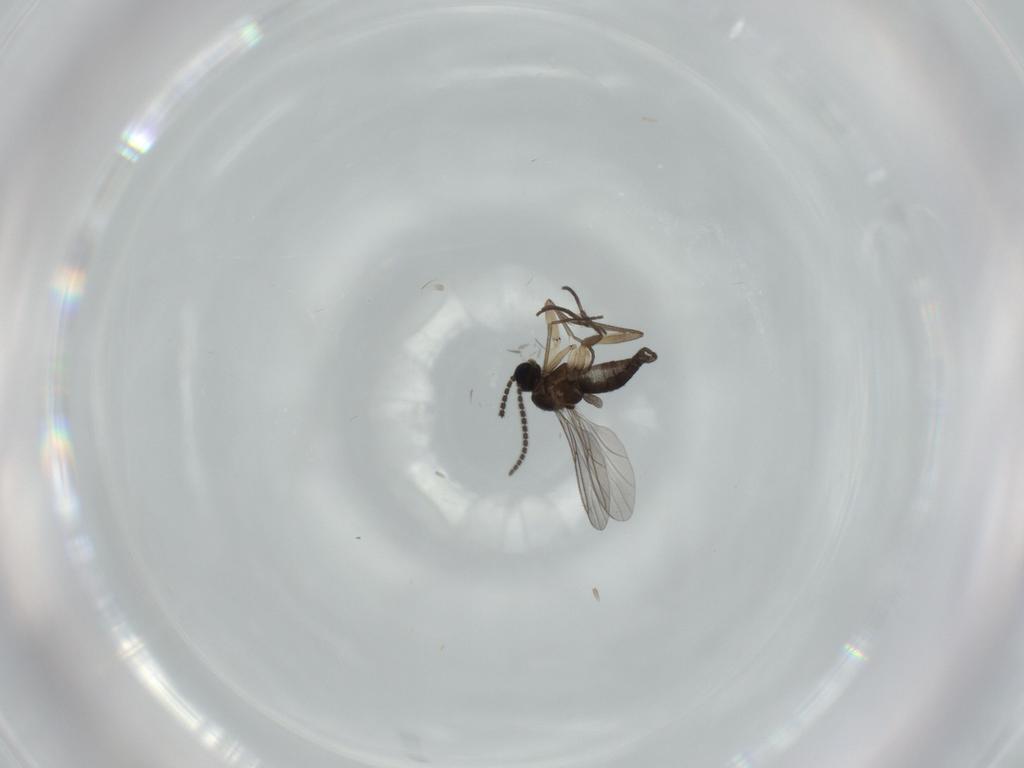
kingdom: Animalia
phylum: Arthropoda
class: Insecta
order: Diptera
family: Sciaridae
